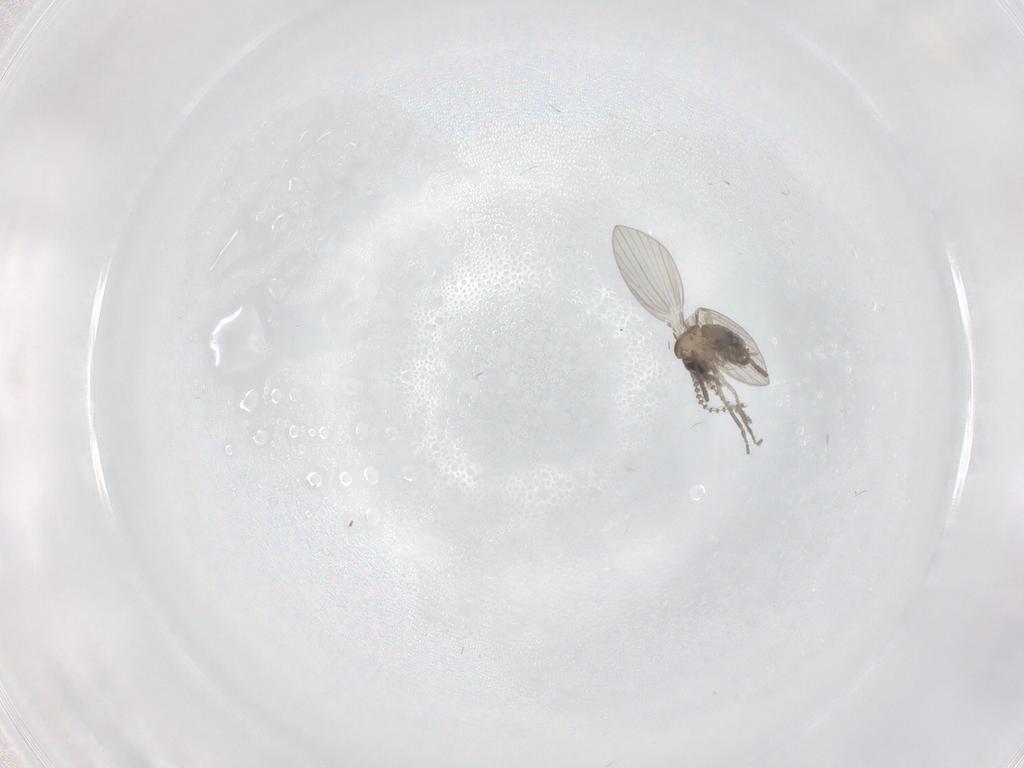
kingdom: Animalia
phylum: Arthropoda
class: Insecta
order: Diptera
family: Psychodidae
